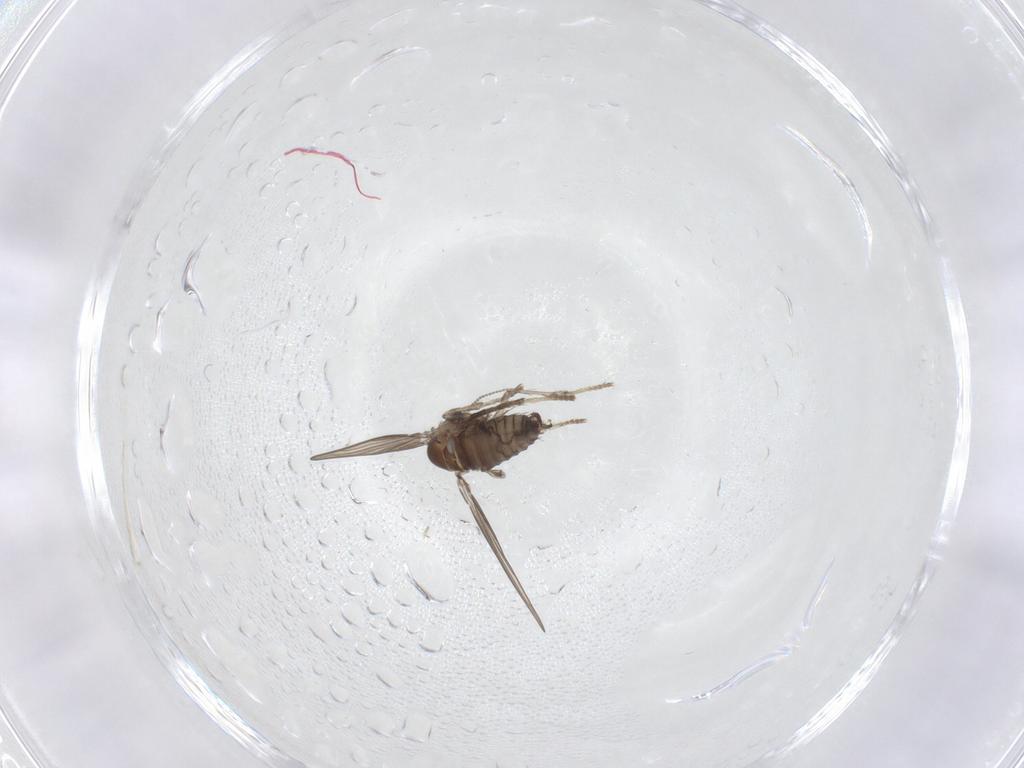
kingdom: Animalia
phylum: Arthropoda
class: Insecta
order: Diptera
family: Psychodidae
